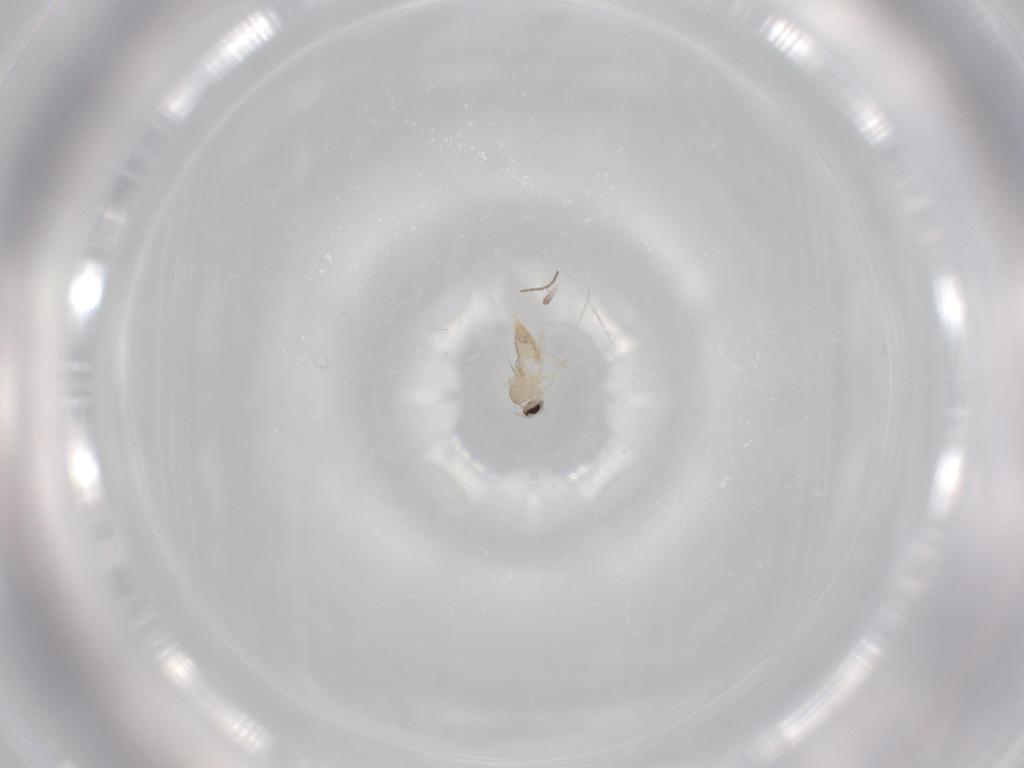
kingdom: Animalia
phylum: Arthropoda
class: Insecta
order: Diptera
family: Cecidomyiidae
